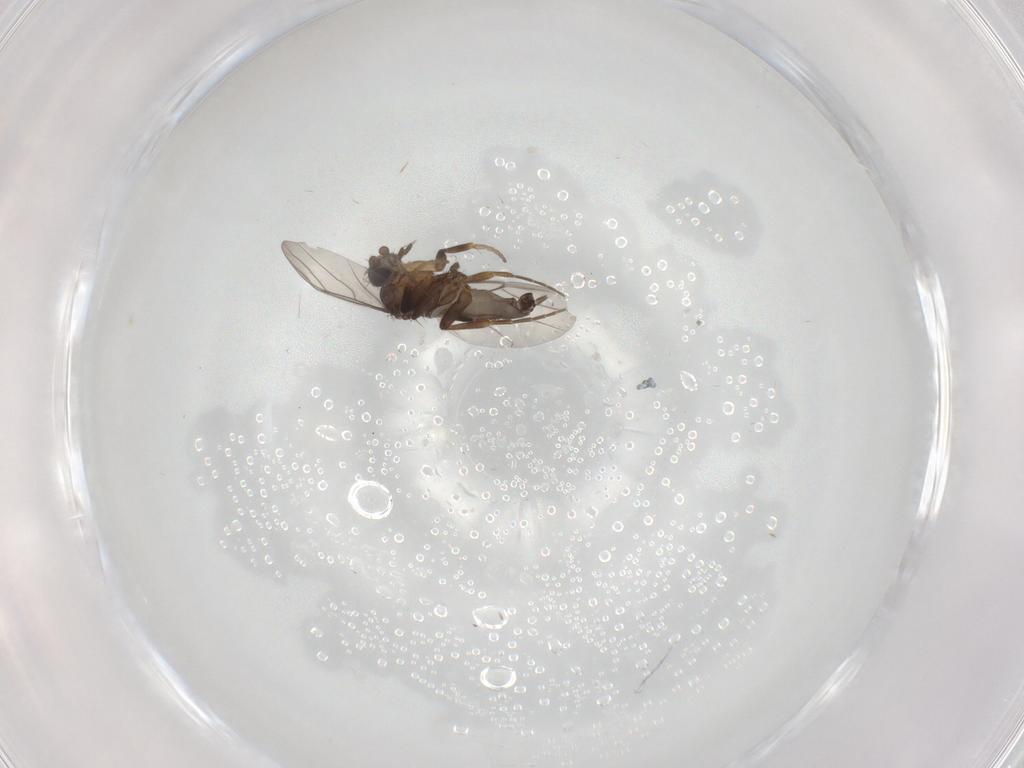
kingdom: Animalia
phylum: Arthropoda
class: Insecta
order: Diptera
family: Phoridae
